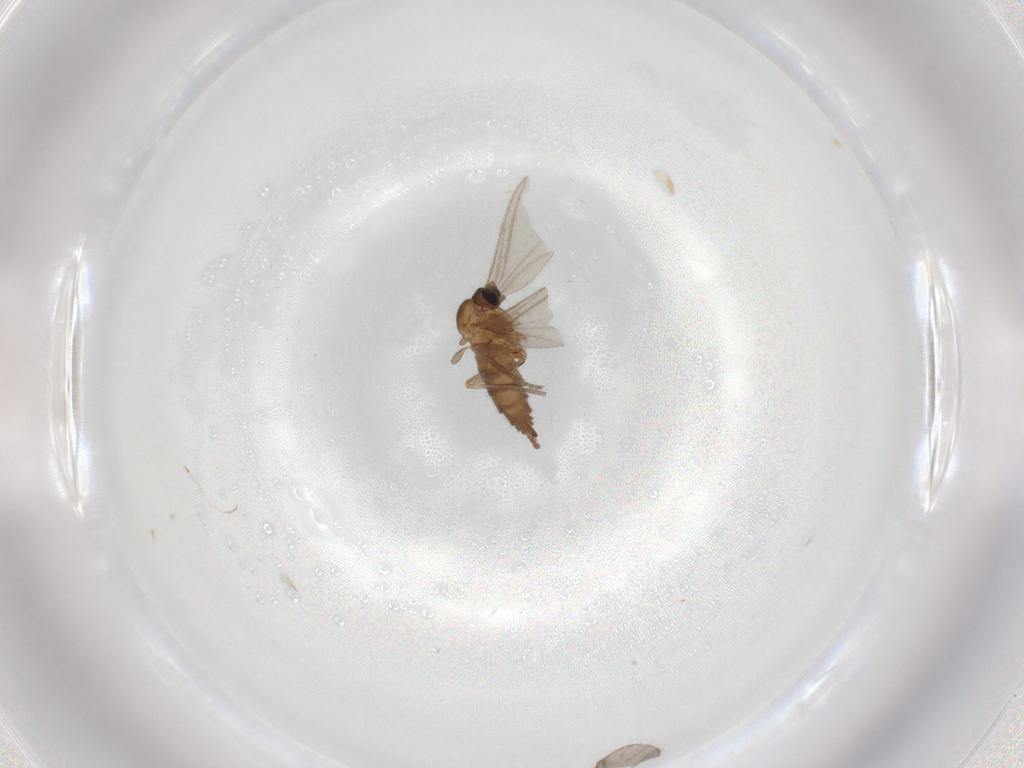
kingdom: Animalia
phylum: Arthropoda
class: Insecta
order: Diptera
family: Sciaridae
